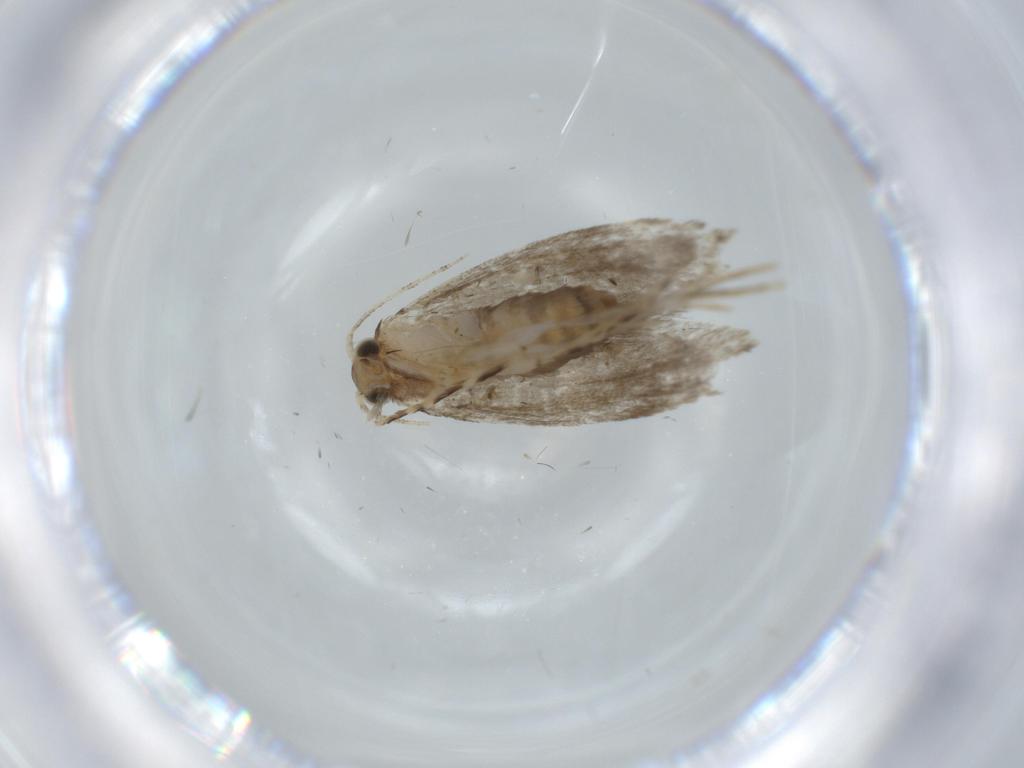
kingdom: Animalia
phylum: Arthropoda
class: Insecta
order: Lepidoptera
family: Tineidae
